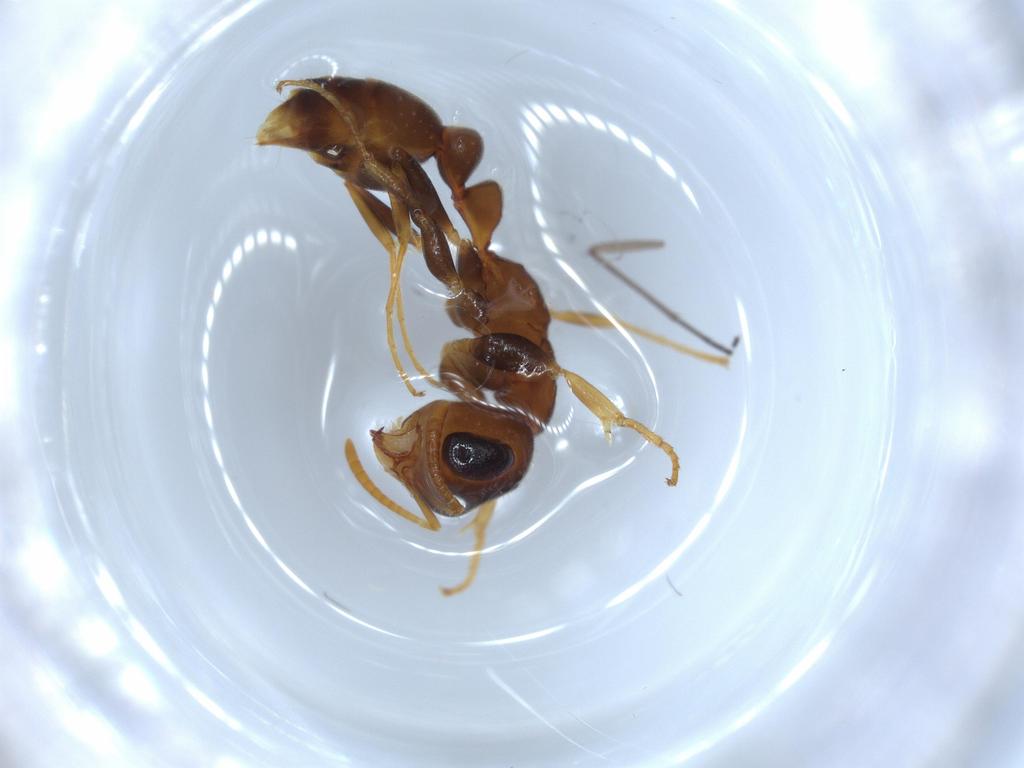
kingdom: Animalia
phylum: Arthropoda
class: Insecta
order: Hymenoptera
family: Formicidae
